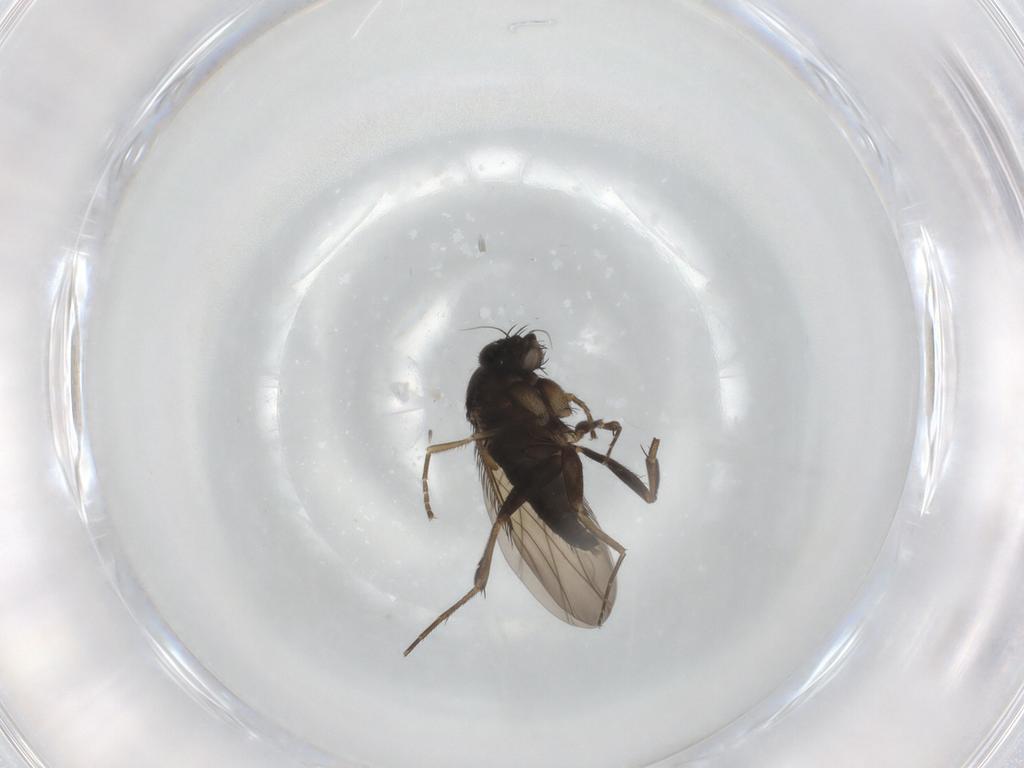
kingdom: Animalia
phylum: Arthropoda
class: Insecta
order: Diptera
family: Phoridae
